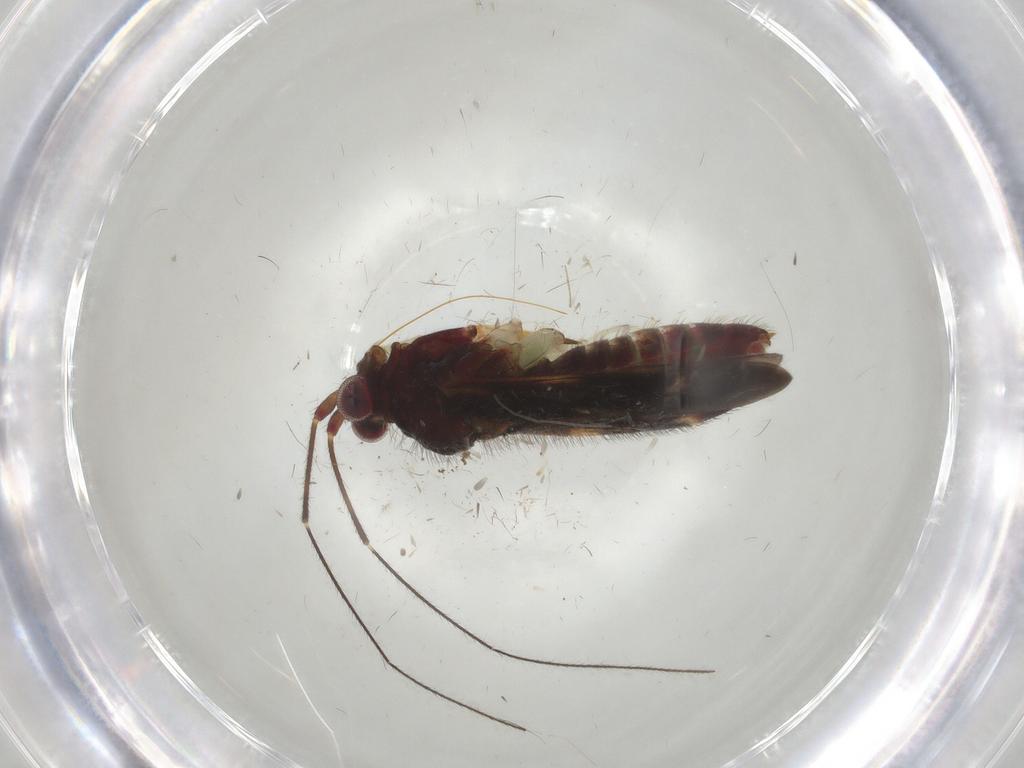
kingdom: Animalia
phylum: Arthropoda
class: Insecta
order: Hemiptera
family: Miridae
